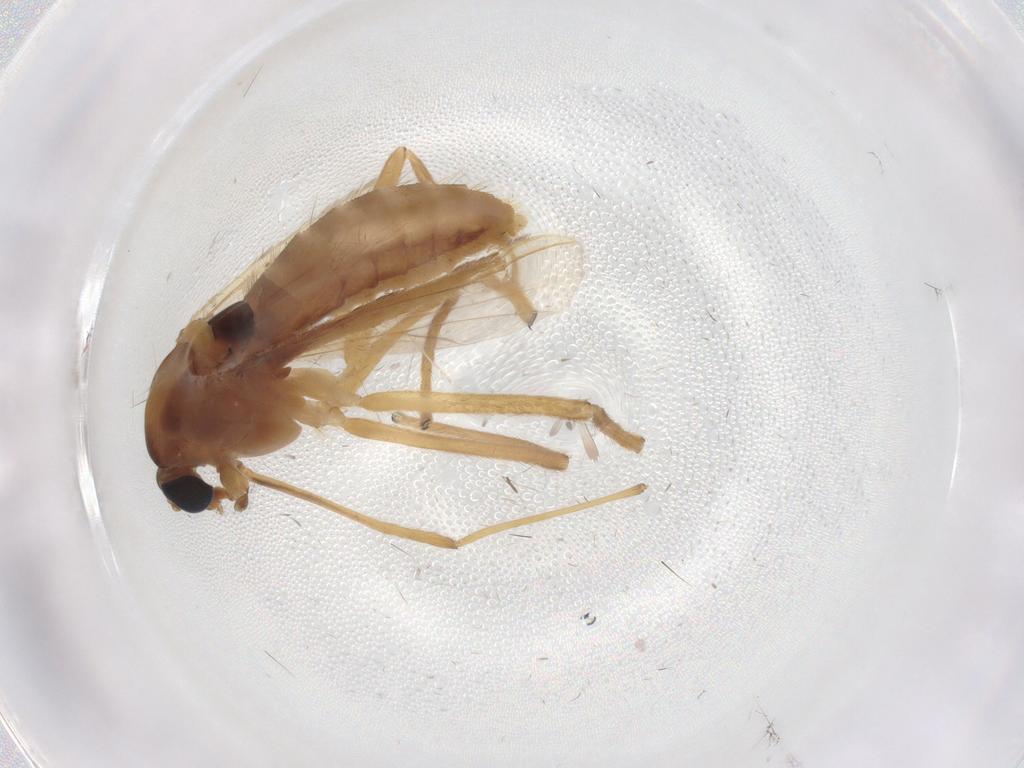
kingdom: Animalia
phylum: Arthropoda
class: Insecta
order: Diptera
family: Chironomidae
